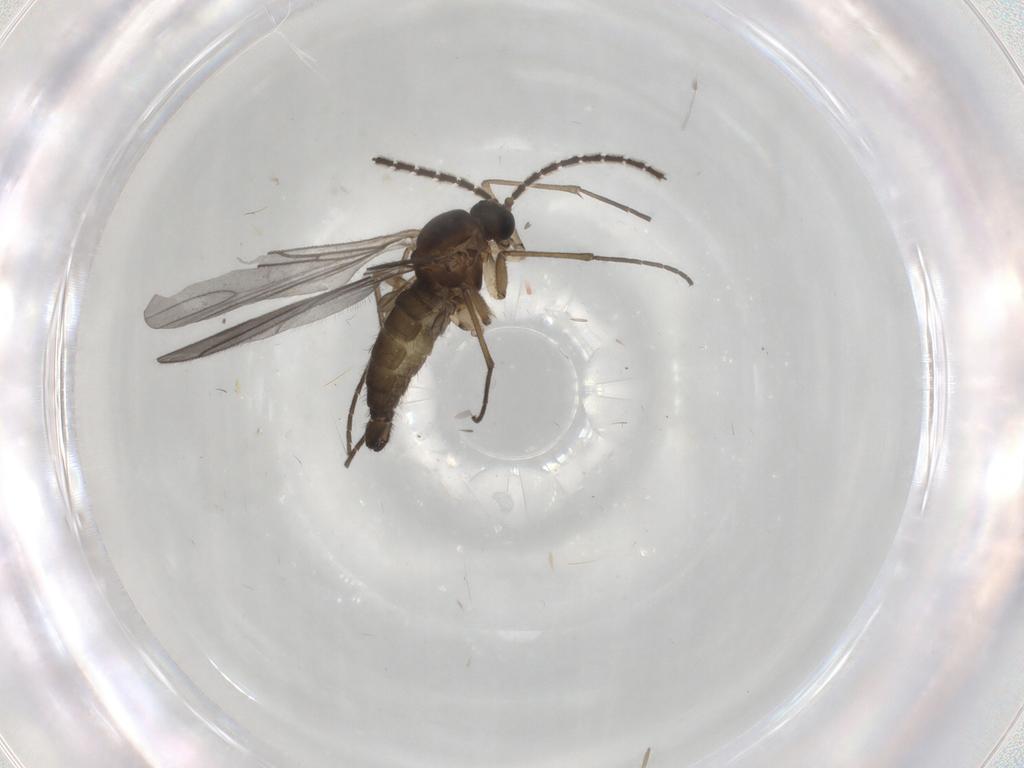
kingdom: Animalia
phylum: Arthropoda
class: Insecta
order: Diptera
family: Sciaridae
